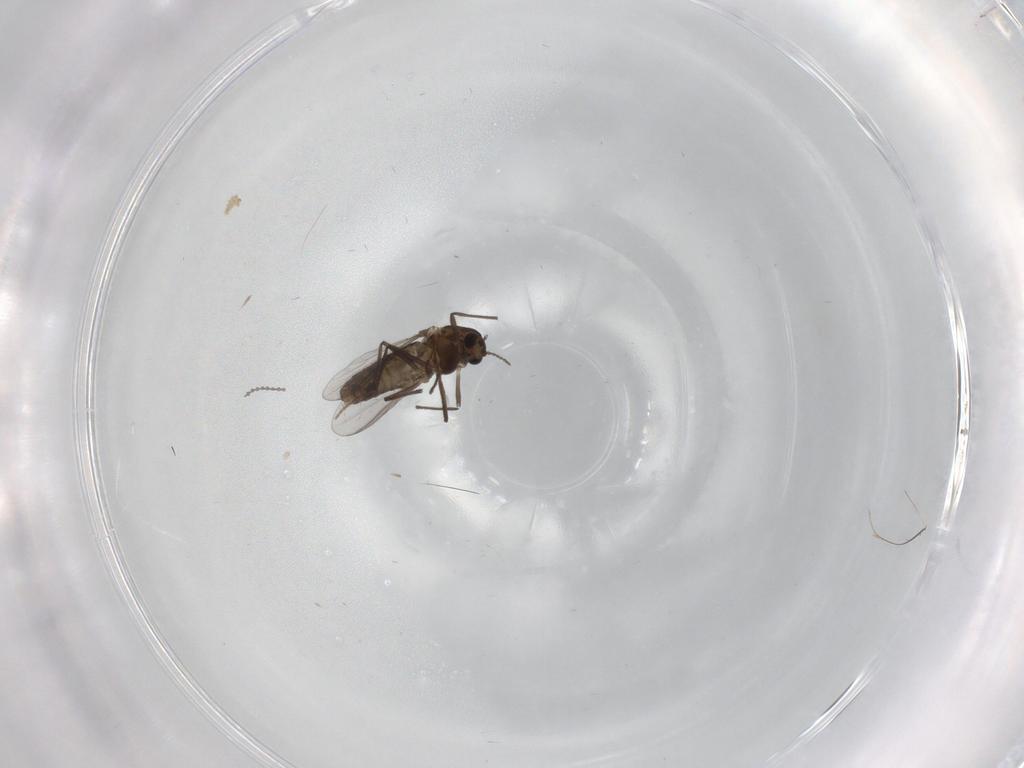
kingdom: Animalia
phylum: Arthropoda
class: Insecta
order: Diptera
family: Chironomidae
